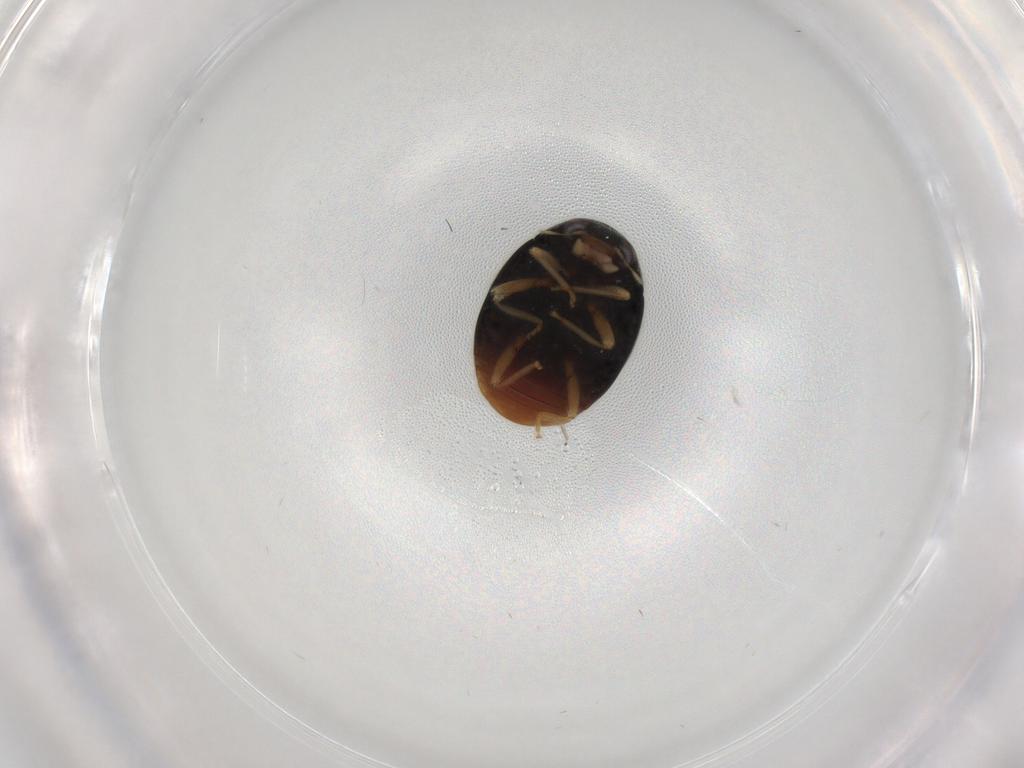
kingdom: Animalia
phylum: Arthropoda
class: Insecta
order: Coleoptera
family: Coccinellidae
